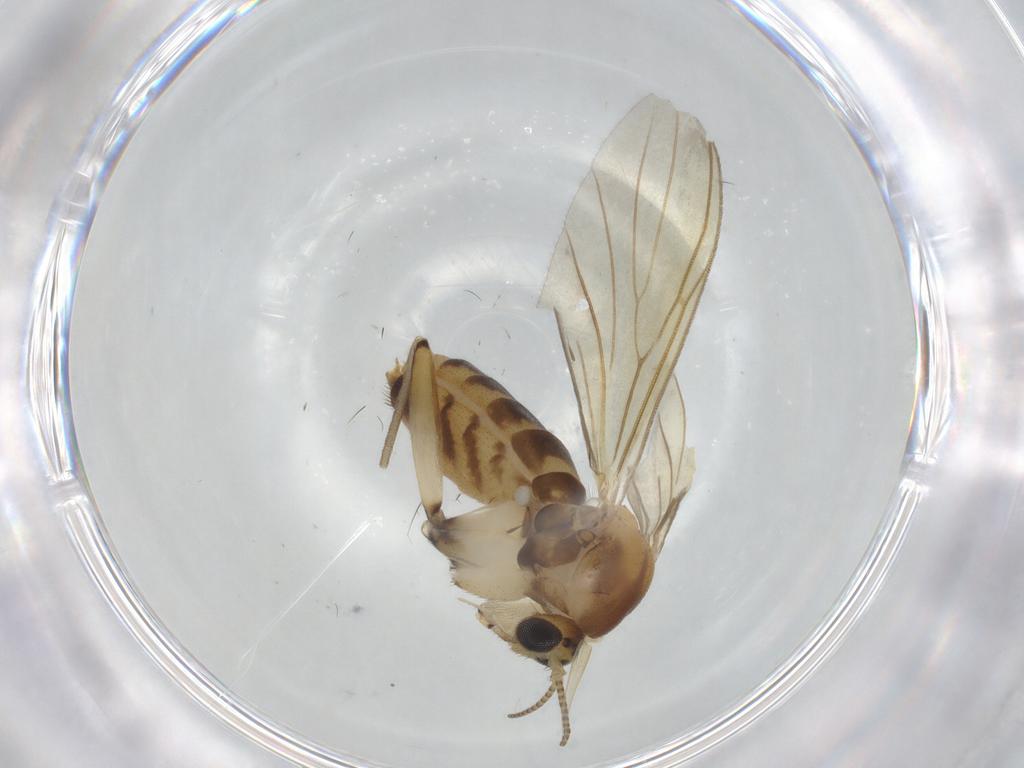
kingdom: Animalia
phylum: Arthropoda
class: Insecta
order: Diptera
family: Mycetophilidae
